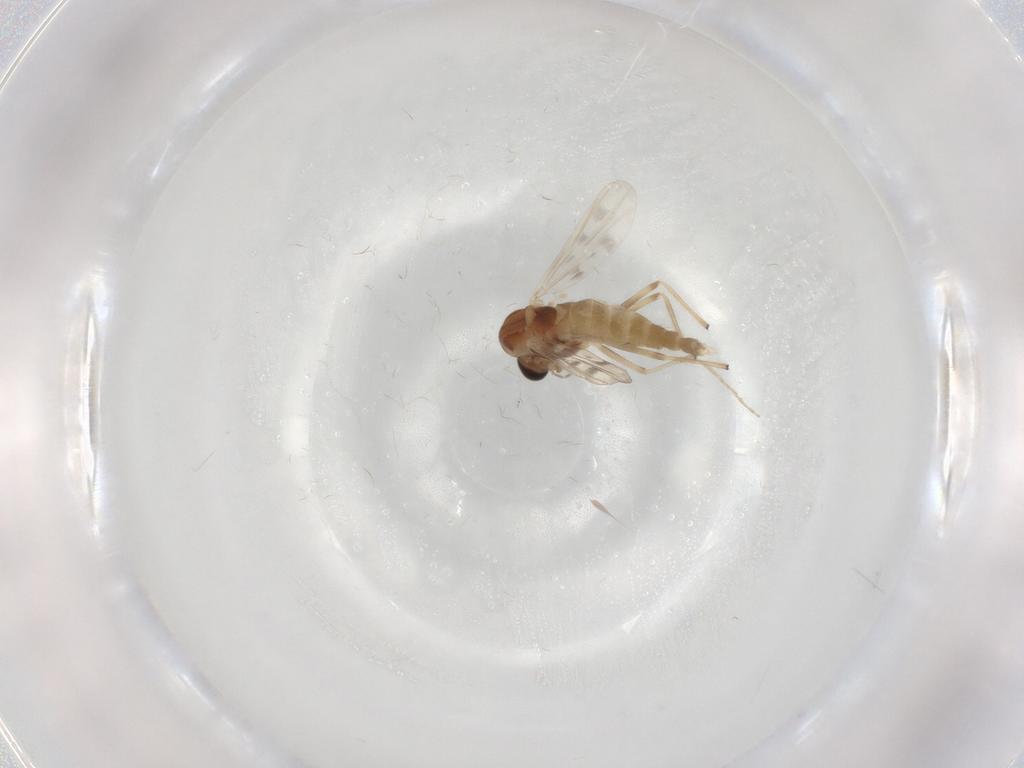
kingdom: Animalia
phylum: Arthropoda
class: Insecta
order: Diptera
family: Chironomidae
